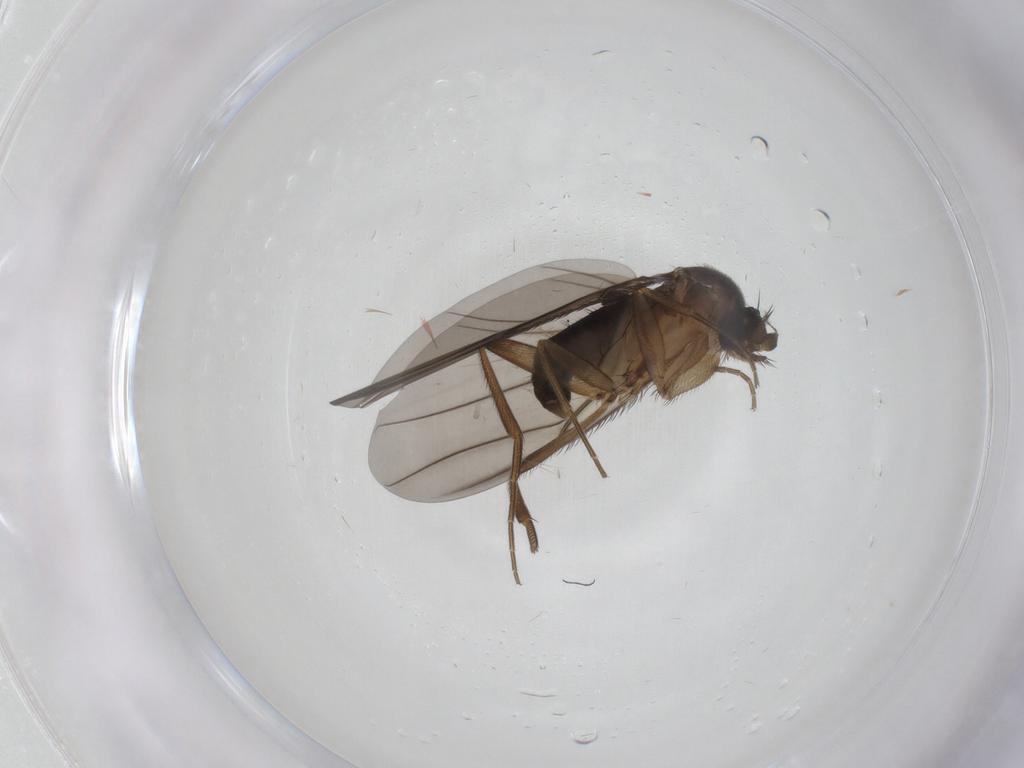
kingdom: Animalia
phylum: Arthropoda
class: Insecta
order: Diptera
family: Phoridae
